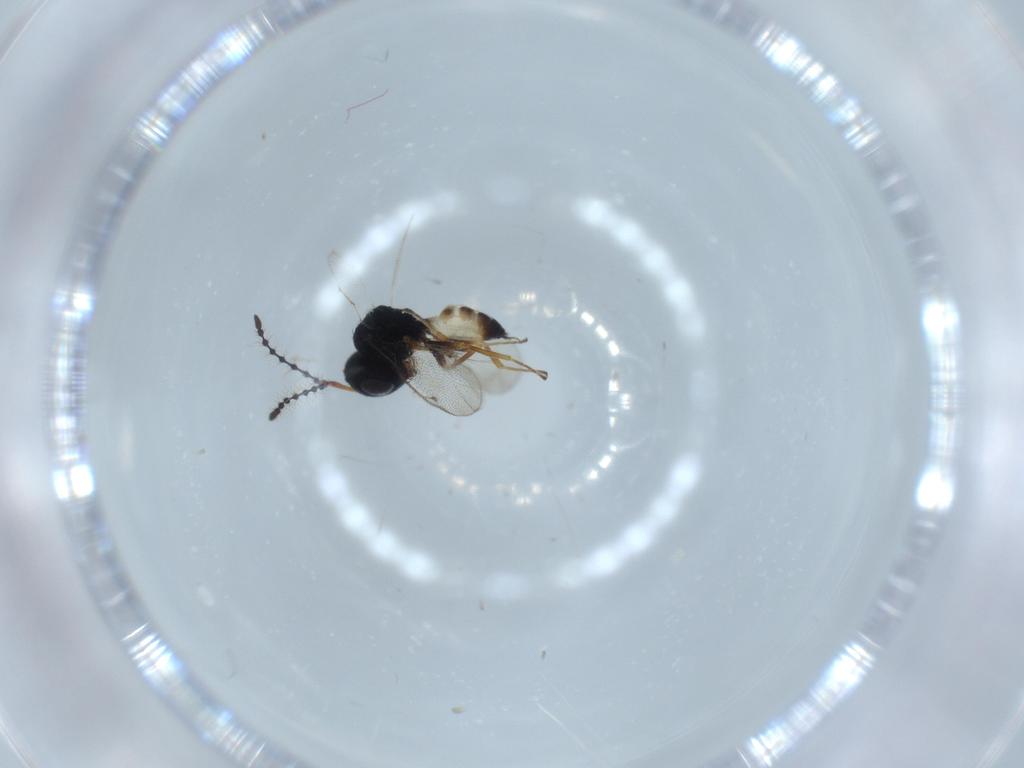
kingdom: Animalia
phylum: Arthropoda
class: Insecta
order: Hymenoptera
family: Pteromalidae
